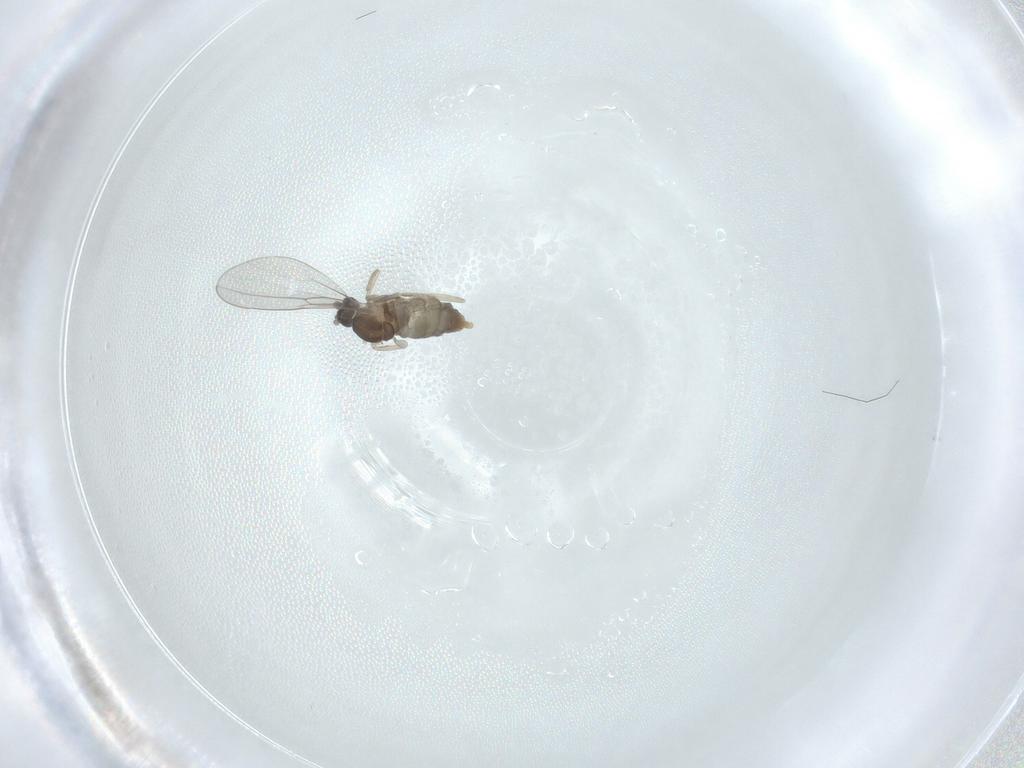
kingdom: Animalia
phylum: Arthropoda
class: Insecta
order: Diptera
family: Cecidomyiidae
